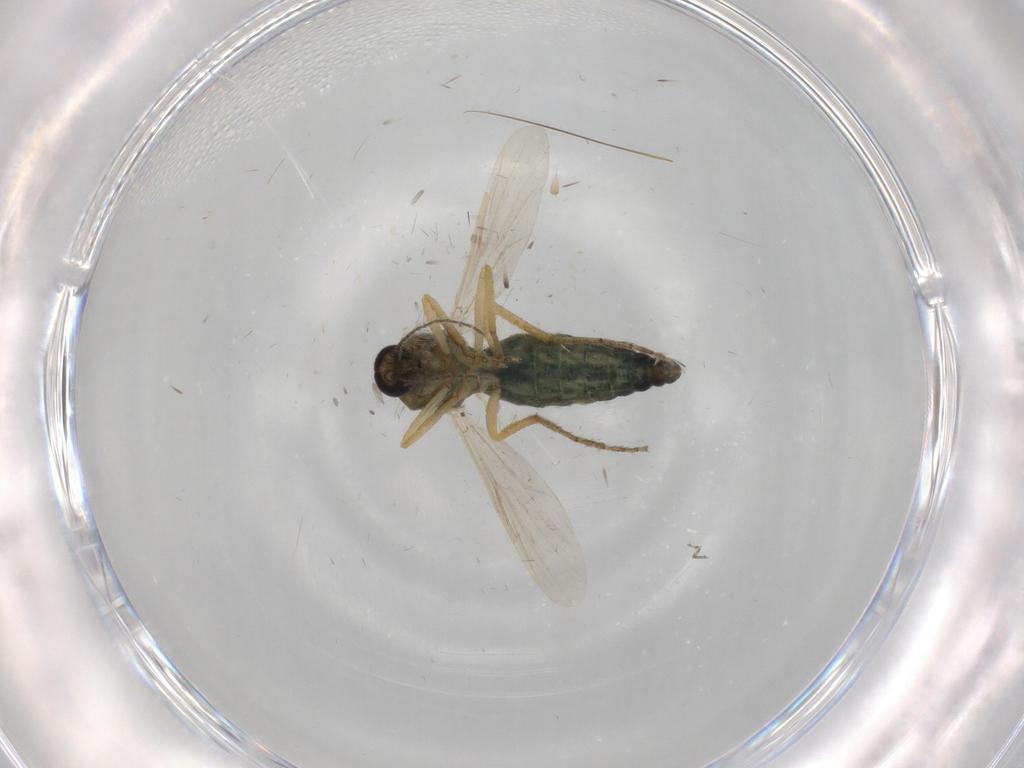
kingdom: Animalia
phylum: Arthropoda
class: Insecta
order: Diptera
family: Ceratopogonidae
